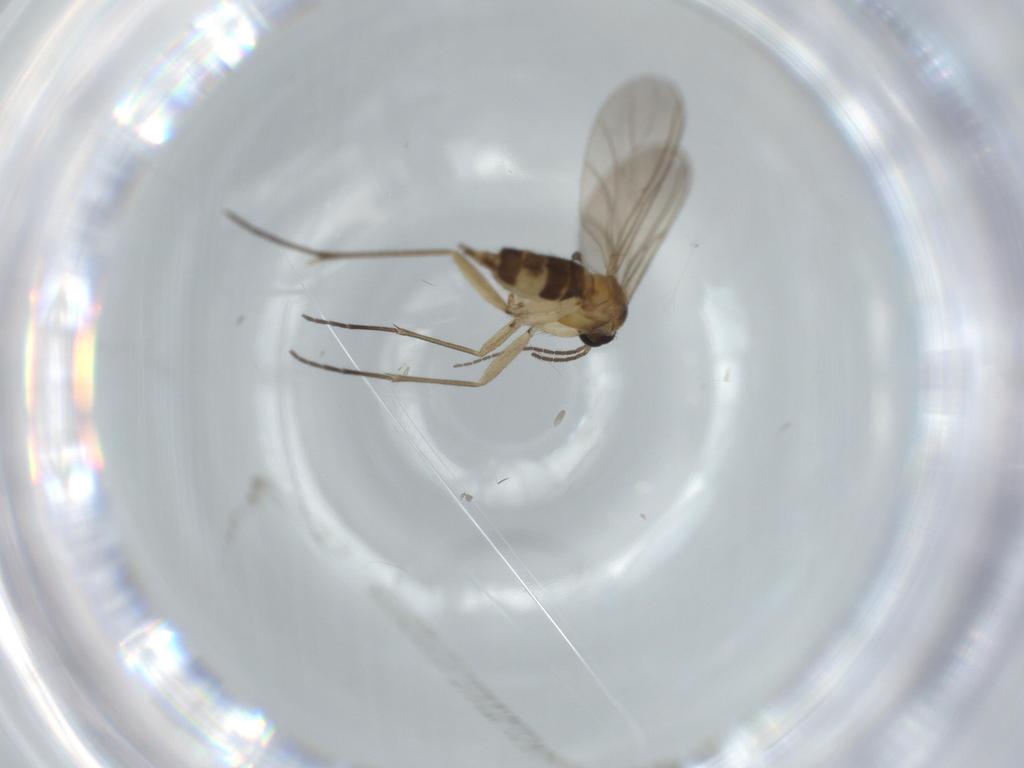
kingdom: Animalia
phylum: Arthropoda
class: Insecta
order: Diptera
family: Sciaridae
